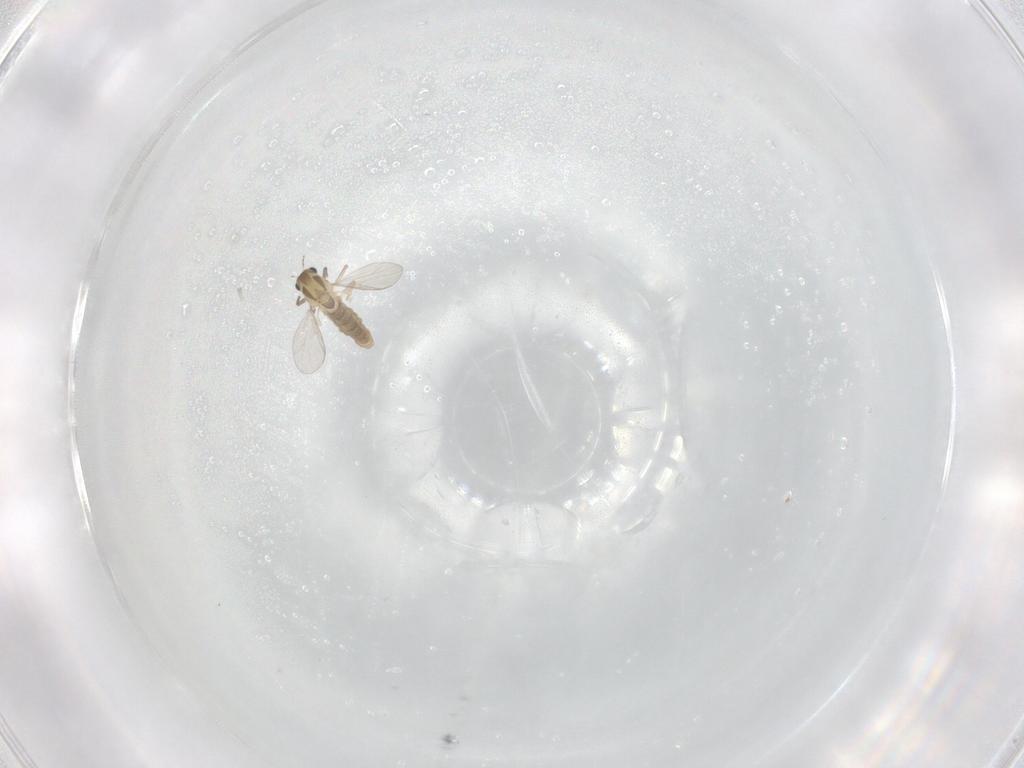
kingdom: Animalia
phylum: Arthropoda
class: Insecta
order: Diptera
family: Chironomidae
